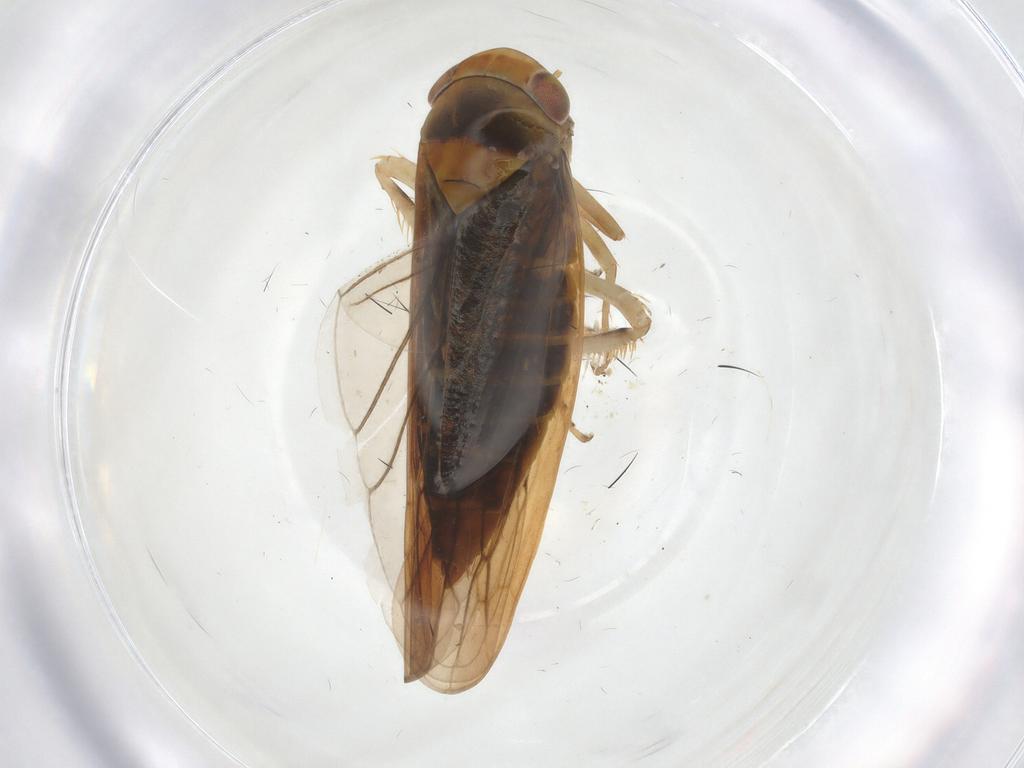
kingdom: Animalia
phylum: Arthropoda
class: Insecta
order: Hemiptera
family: Cicadellidae
